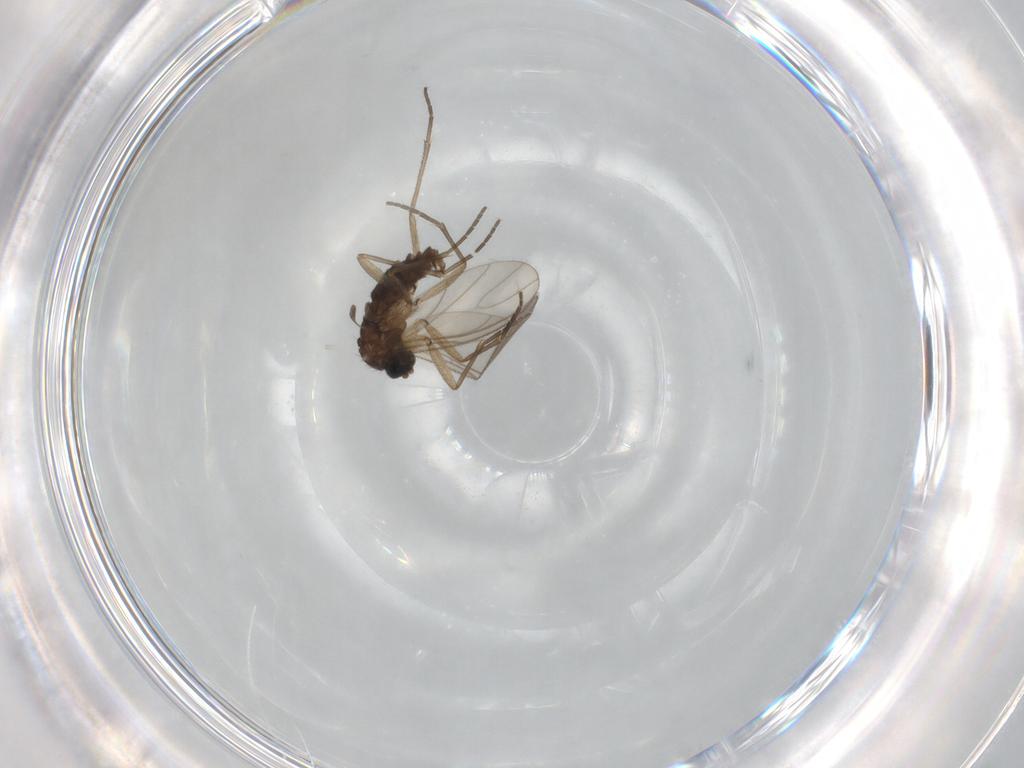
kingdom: Animalia
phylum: Arthropoda
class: Insecta
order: Diptera
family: Sciaridae
